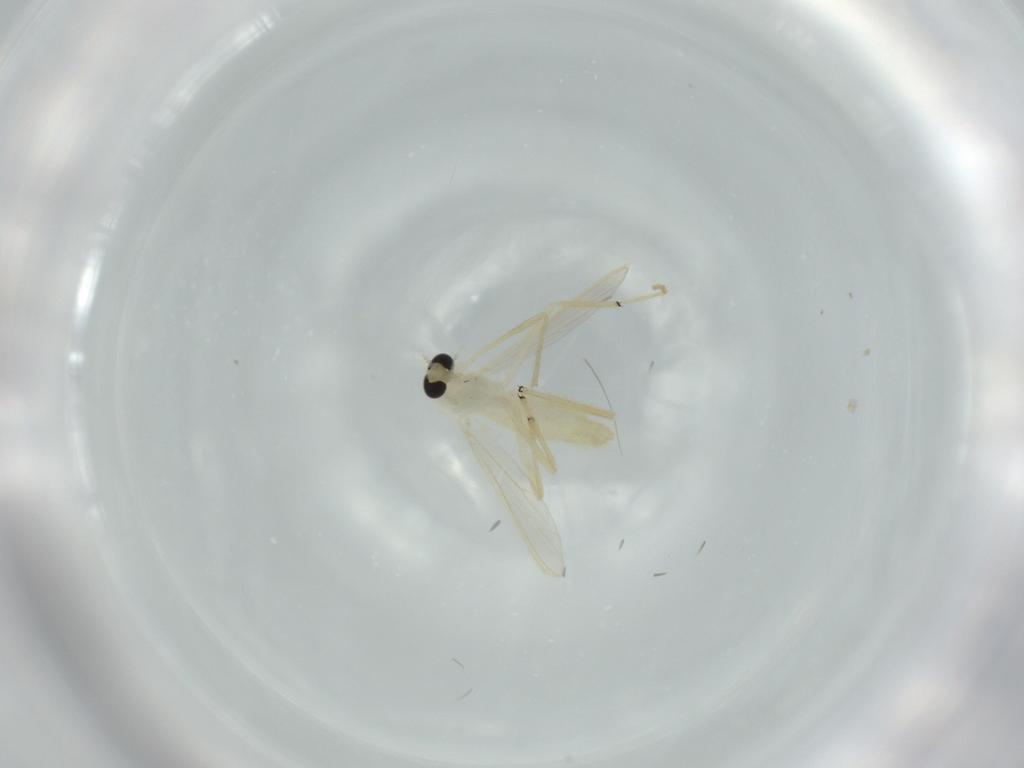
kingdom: Animalia
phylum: Arthropoda
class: Insecta
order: Diptera
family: Chironomidae
